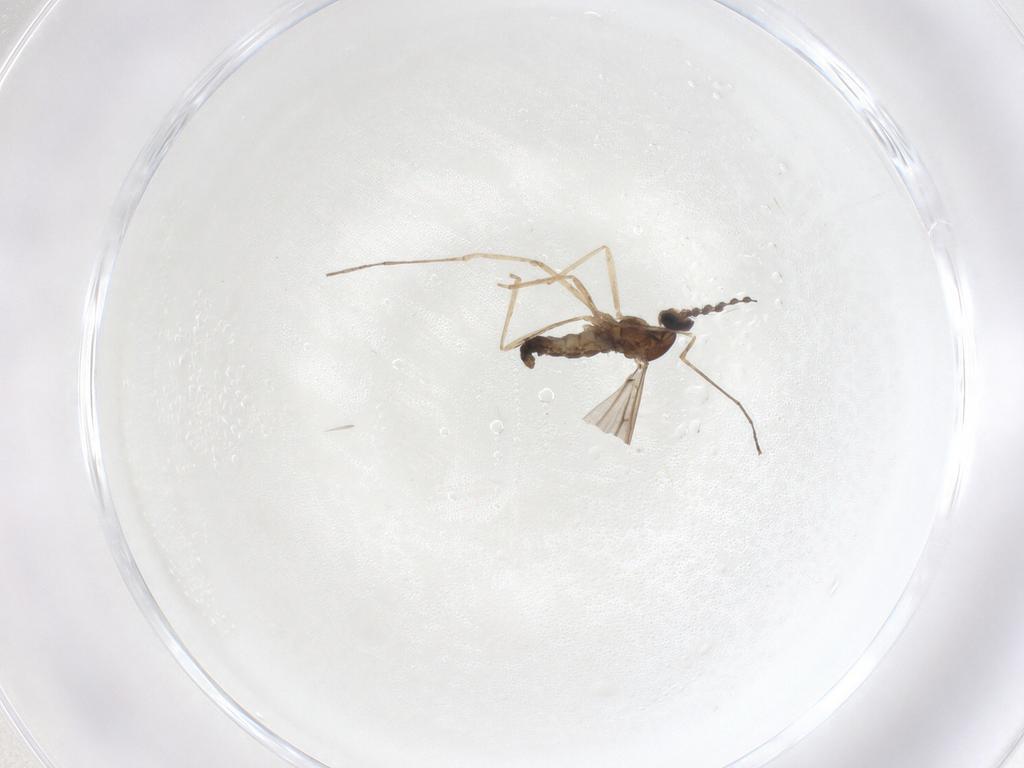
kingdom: Animalia
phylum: Arthropoda
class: Insecta
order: Diptera
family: Cecidomyiidae
